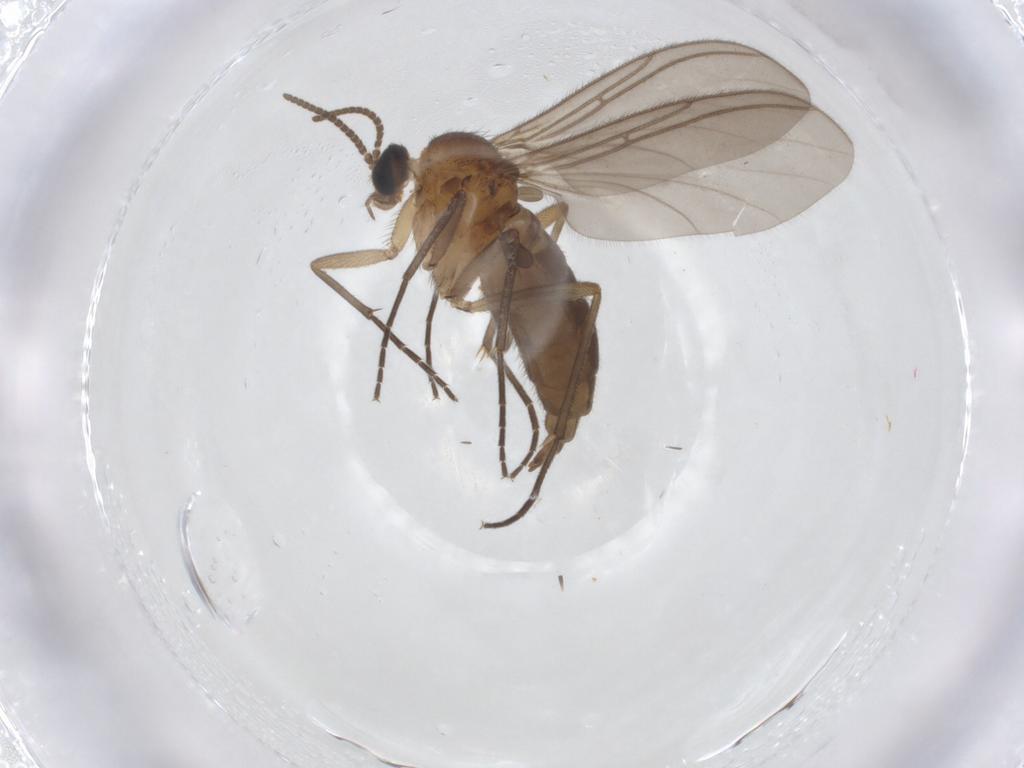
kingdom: Animalia
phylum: Arthropoda
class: Insecta
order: Diptera
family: Sciaridae
